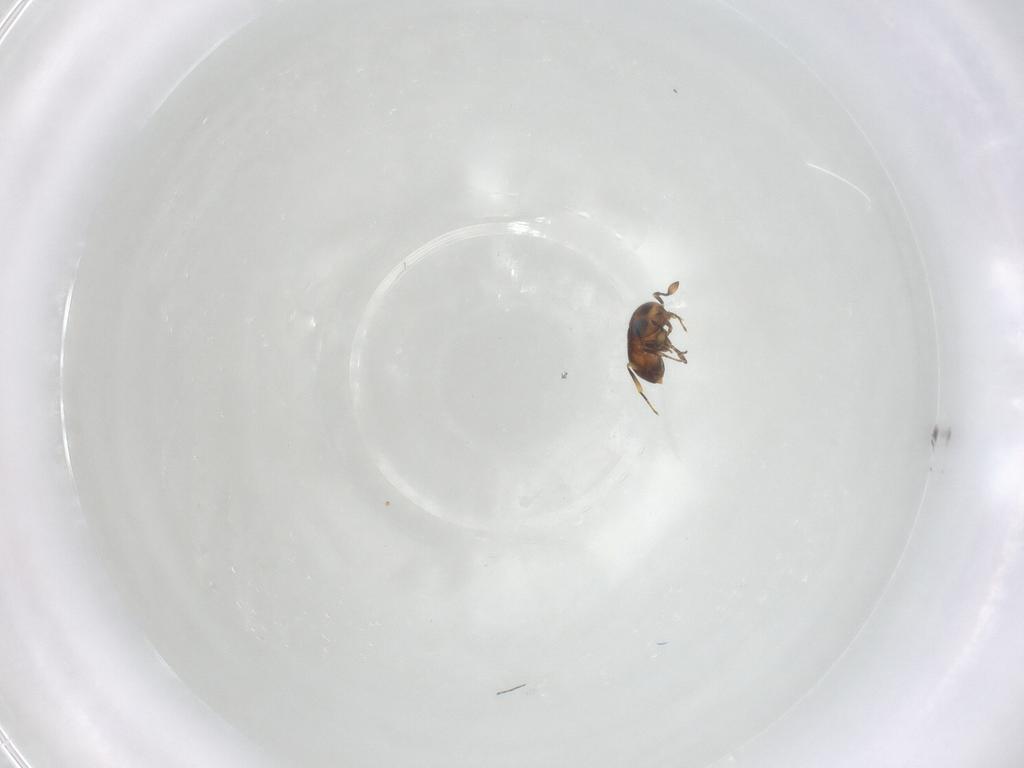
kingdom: Animalia
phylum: Arthropoda
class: Insecta
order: Hymenoptera
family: Scelionidae
